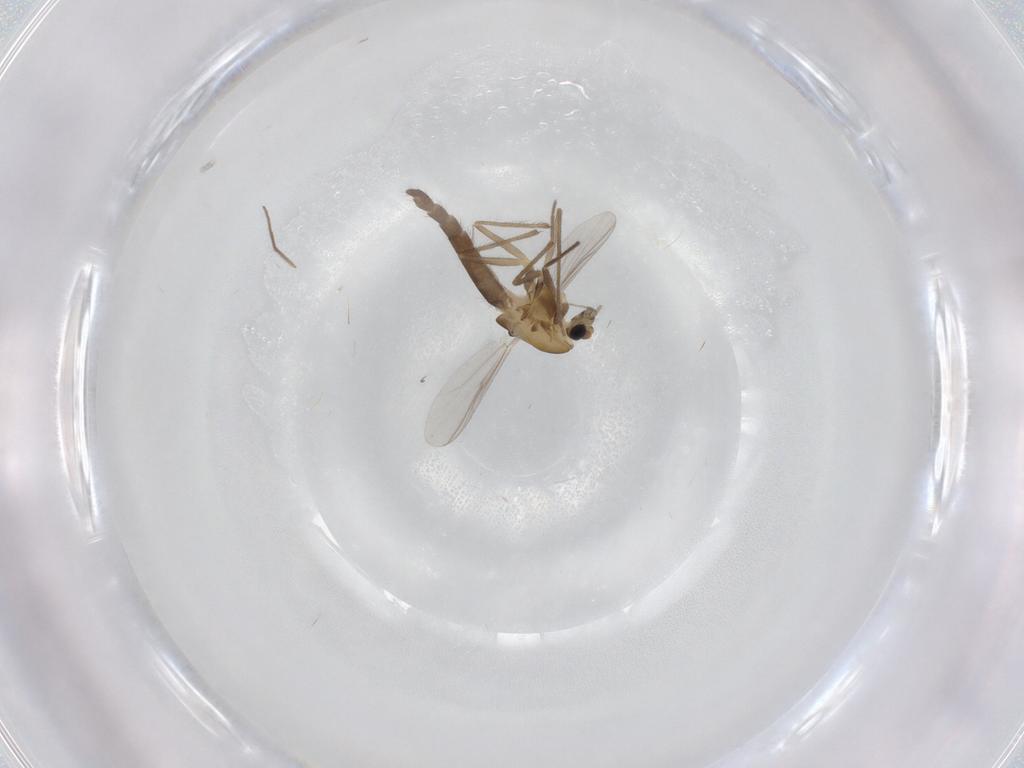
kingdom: Animalia
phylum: Arthropoda
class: Insecta
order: Diptera
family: Chironomidae
